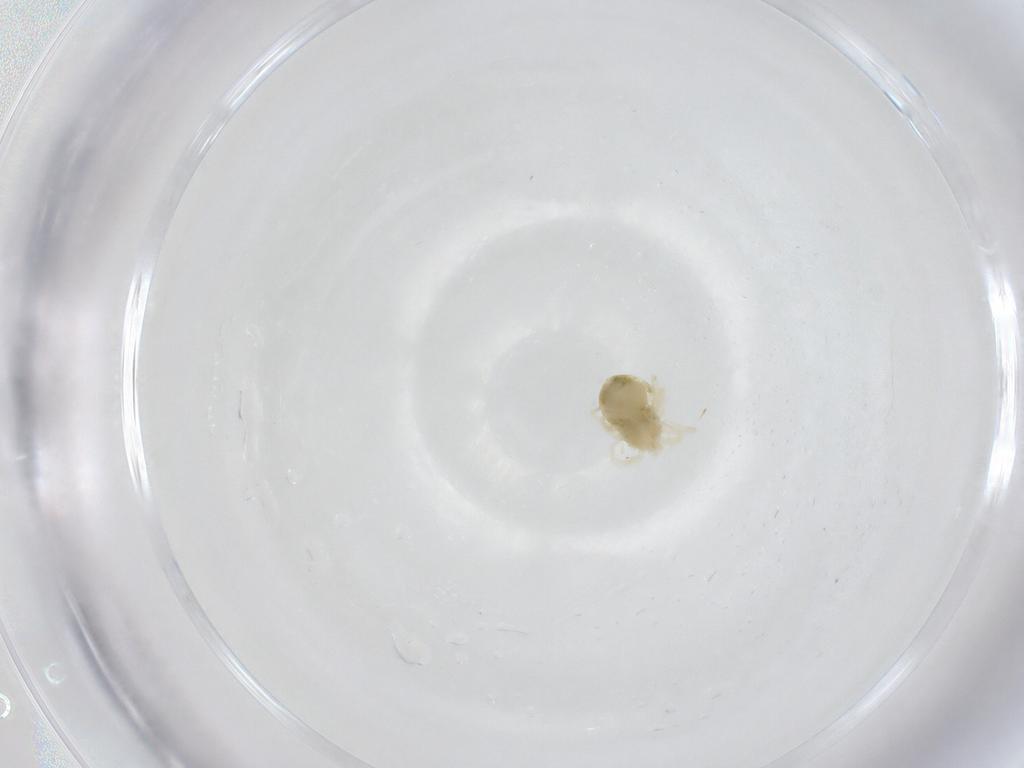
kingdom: Animalia
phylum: Arthropoda
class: Arachnida
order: Trombidiformes
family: Anystidae
